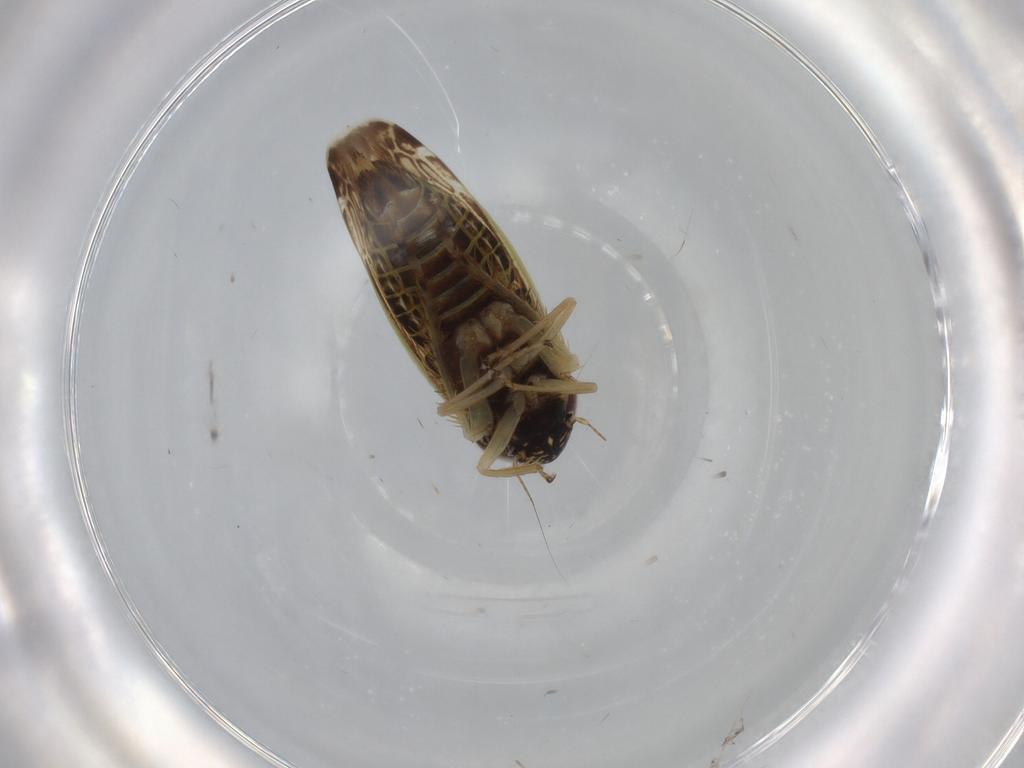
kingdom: Animalia
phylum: Arthropoda
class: Insecta
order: Hemiptera
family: Cicadellidae
